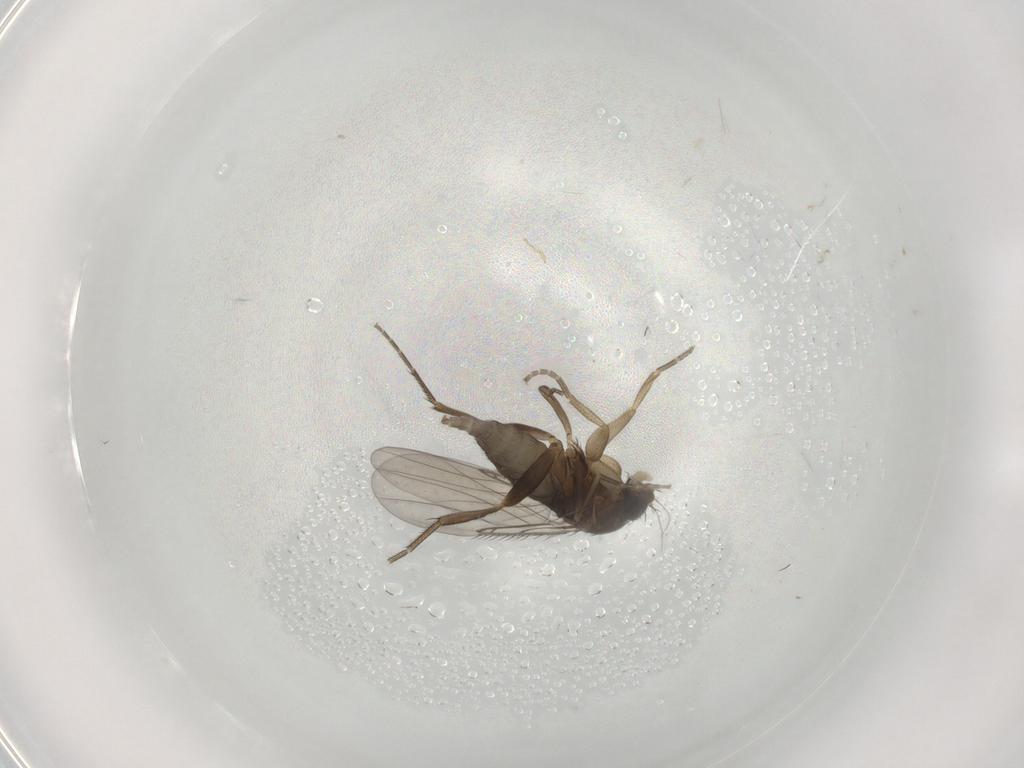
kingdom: Animalia
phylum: Arthropoda
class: Insecta
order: Diptera
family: Phoridae
